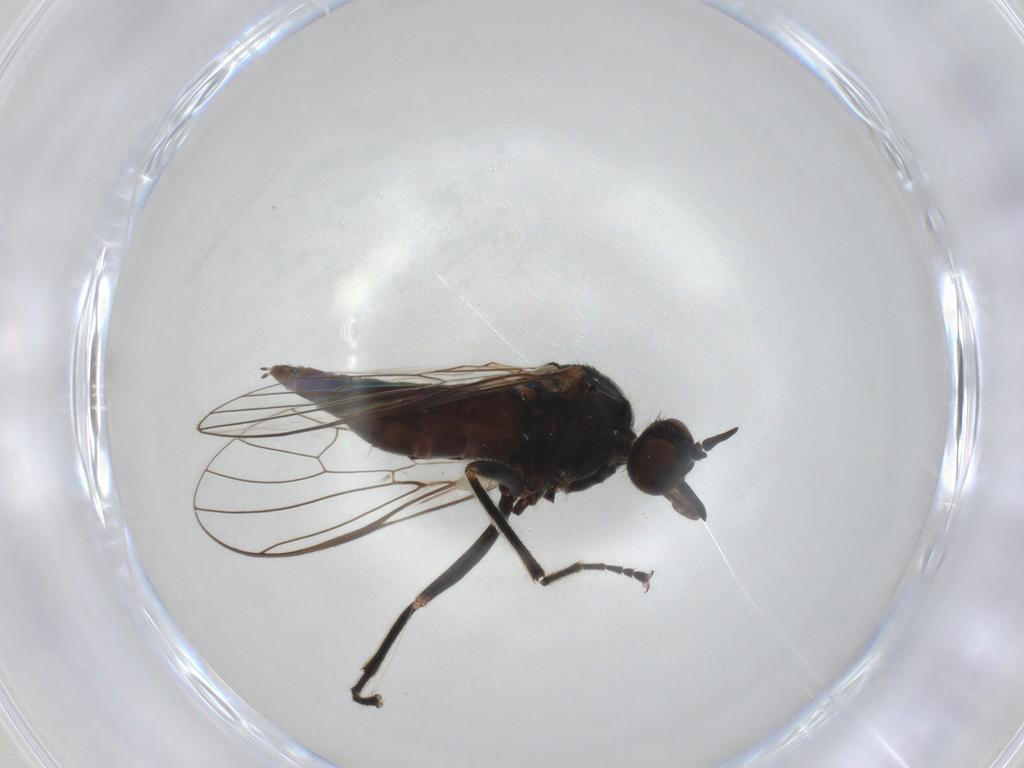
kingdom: Animalia
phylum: Arthropoda
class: Insecta
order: Diptera
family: Empididae
